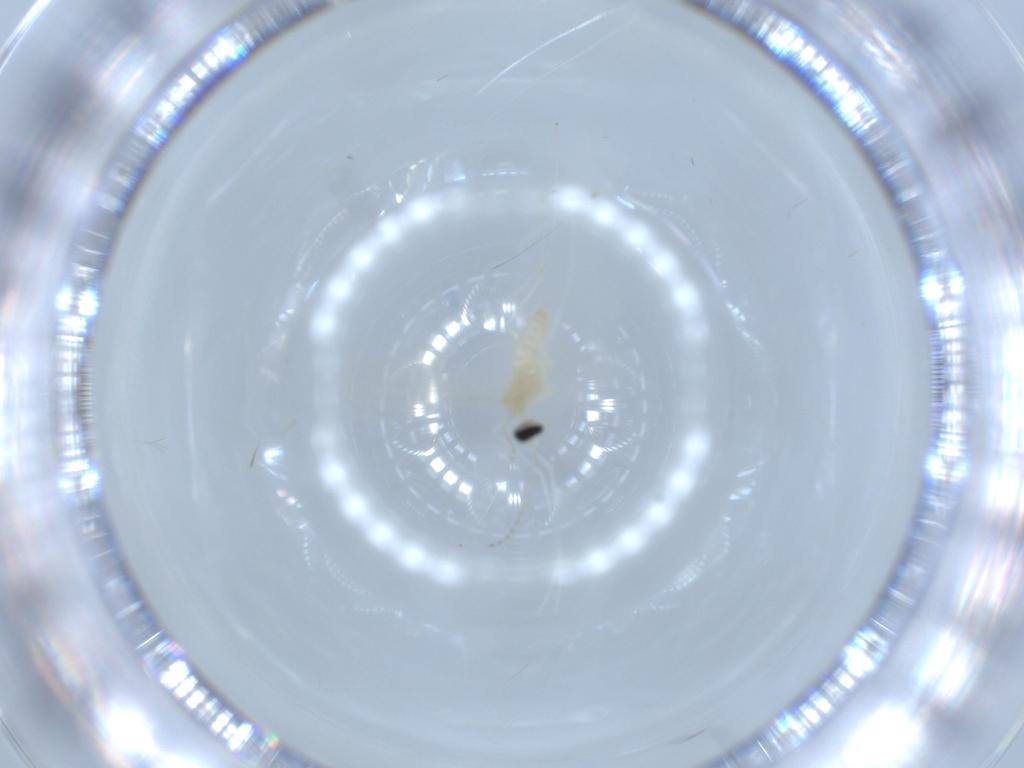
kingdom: Animalia
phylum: Arthropoda
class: Insecta
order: Diptera
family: Cecidomyiidae
